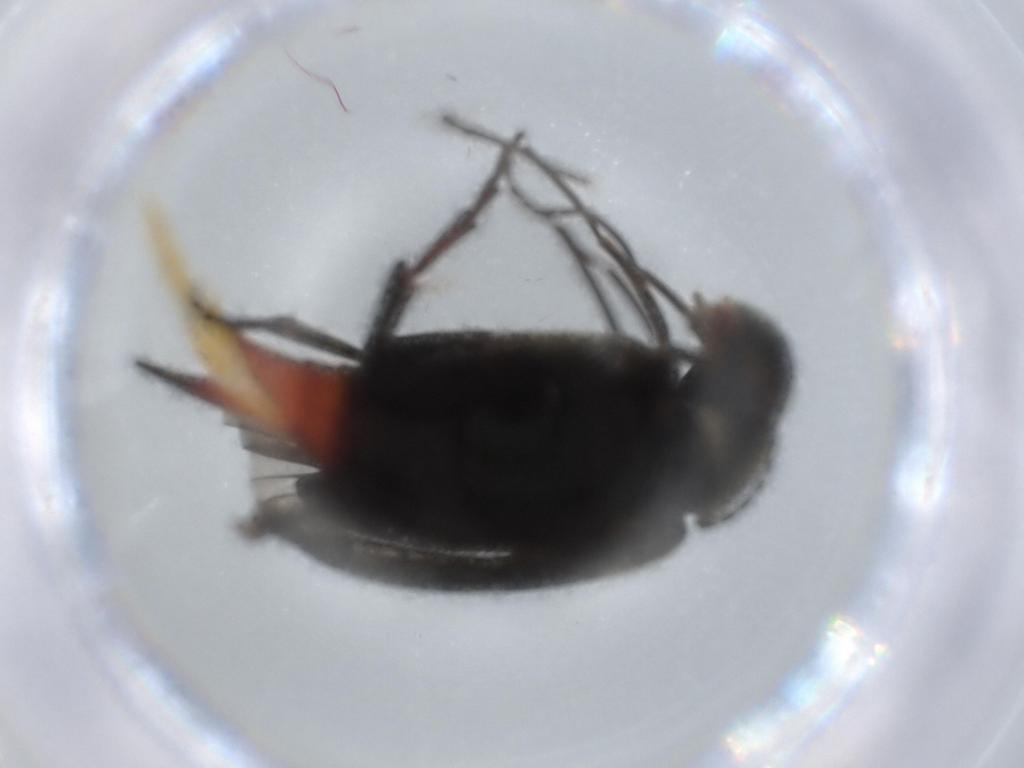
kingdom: Animalia
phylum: Arthropoda
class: Insecta
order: Coleoptera
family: Mordellidae
